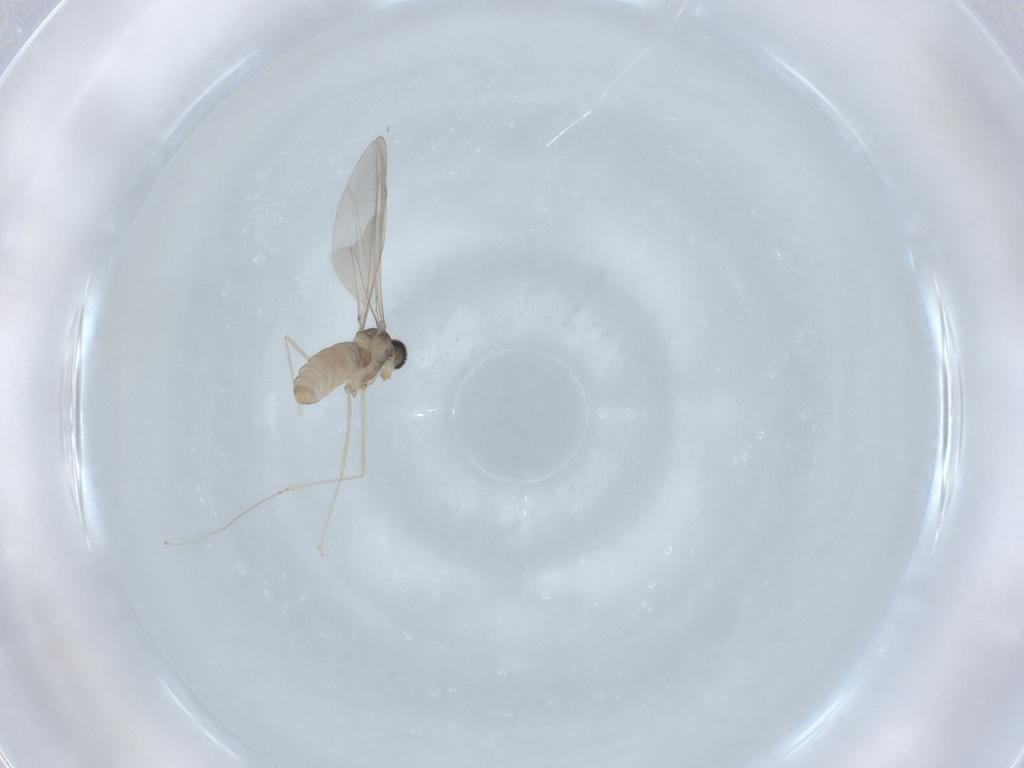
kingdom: Animalia
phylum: Arthropoda
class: Insecta
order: Diptera
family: Cecidomyiidae
